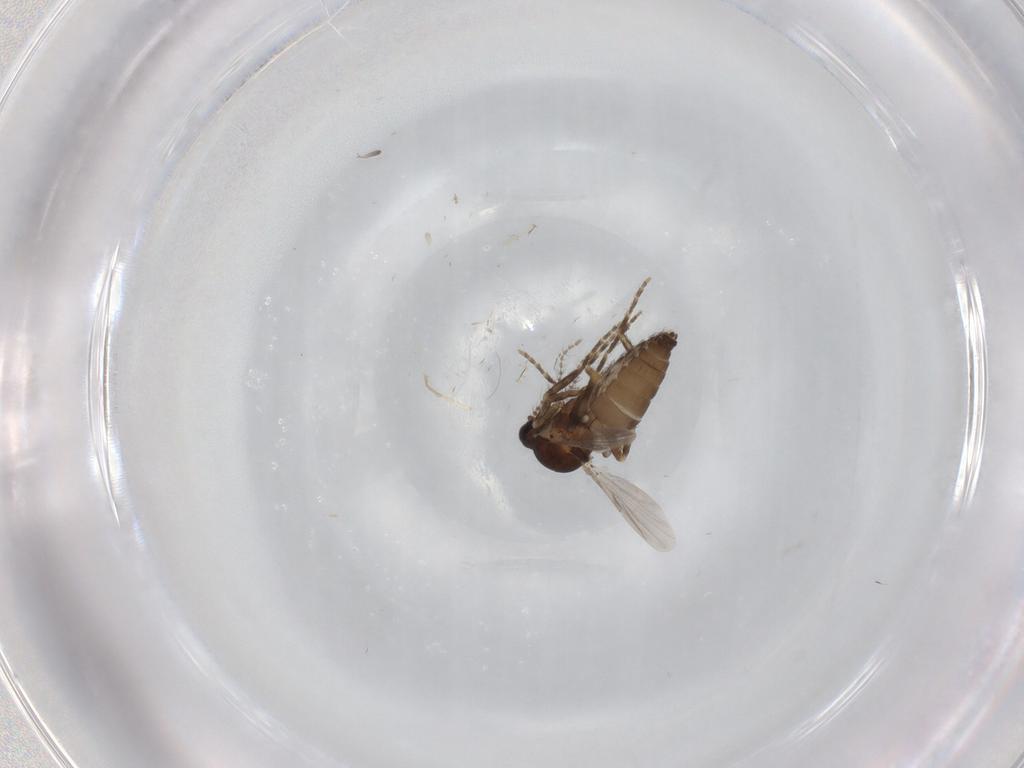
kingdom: Animalia
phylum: Arthropoda
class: Insecta
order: Diptera
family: Ceratopogonidae
